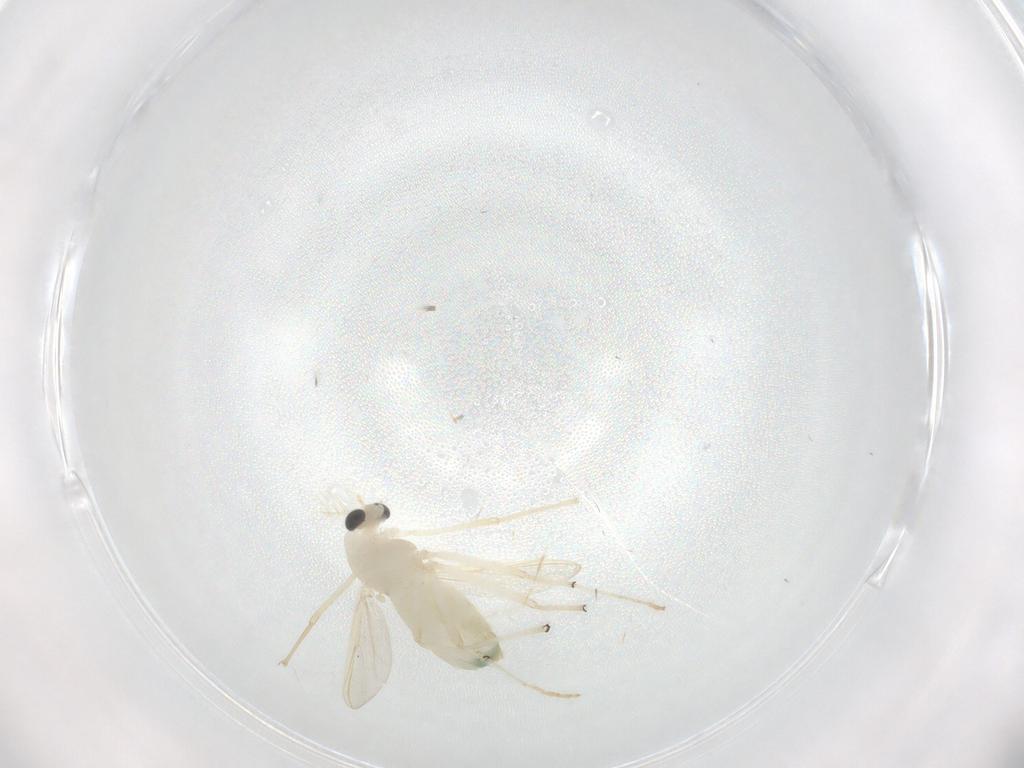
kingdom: Animalia
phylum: Arthropoda
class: Insecta
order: Diptera
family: Chironomidae
